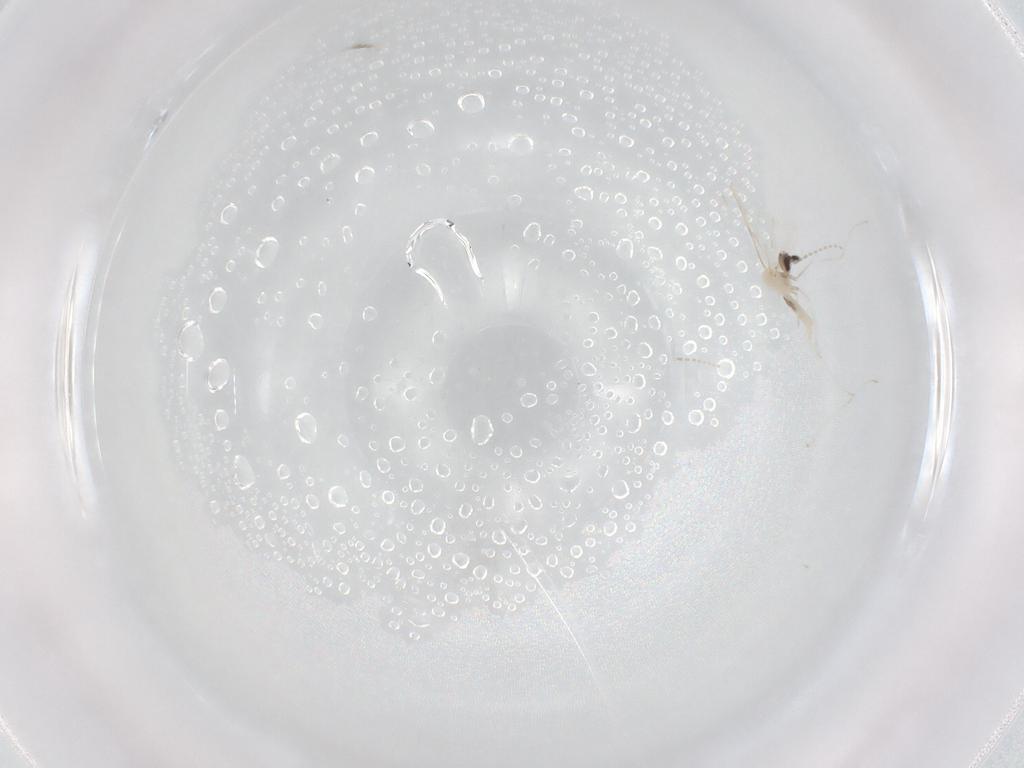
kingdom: Animalia
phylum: Arthropoda
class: Insecta
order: Diptera
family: Cecidomyiidae
